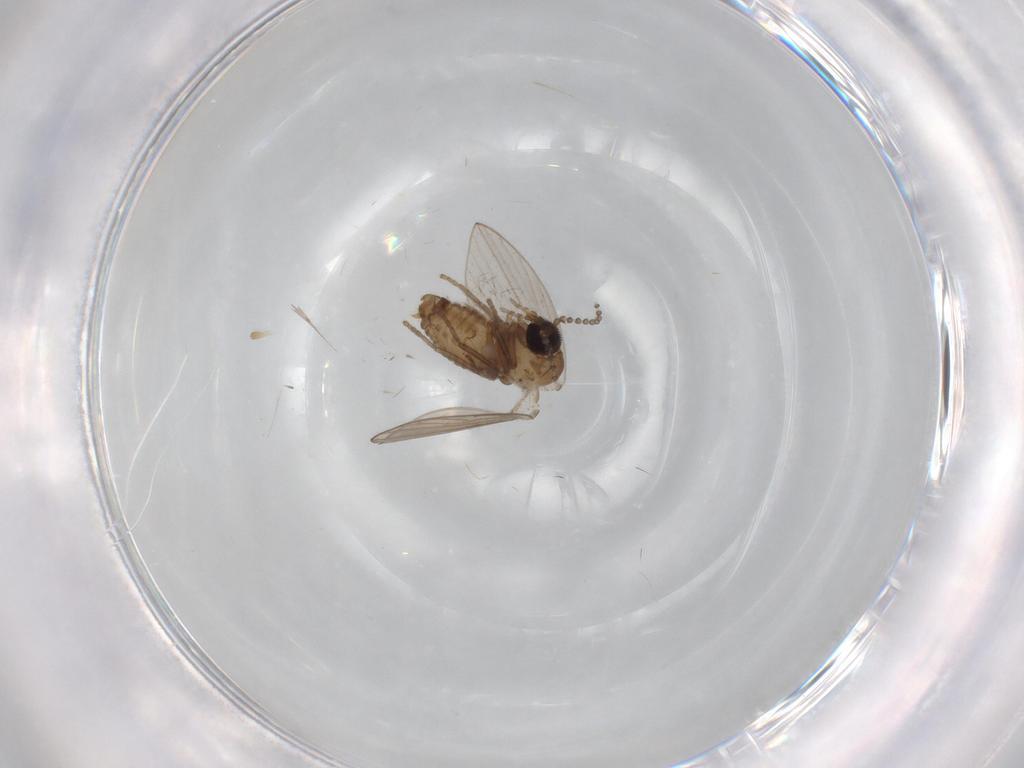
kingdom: Animalia
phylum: Arthropoda
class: Insecta
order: Diptera
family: Psychodidae
